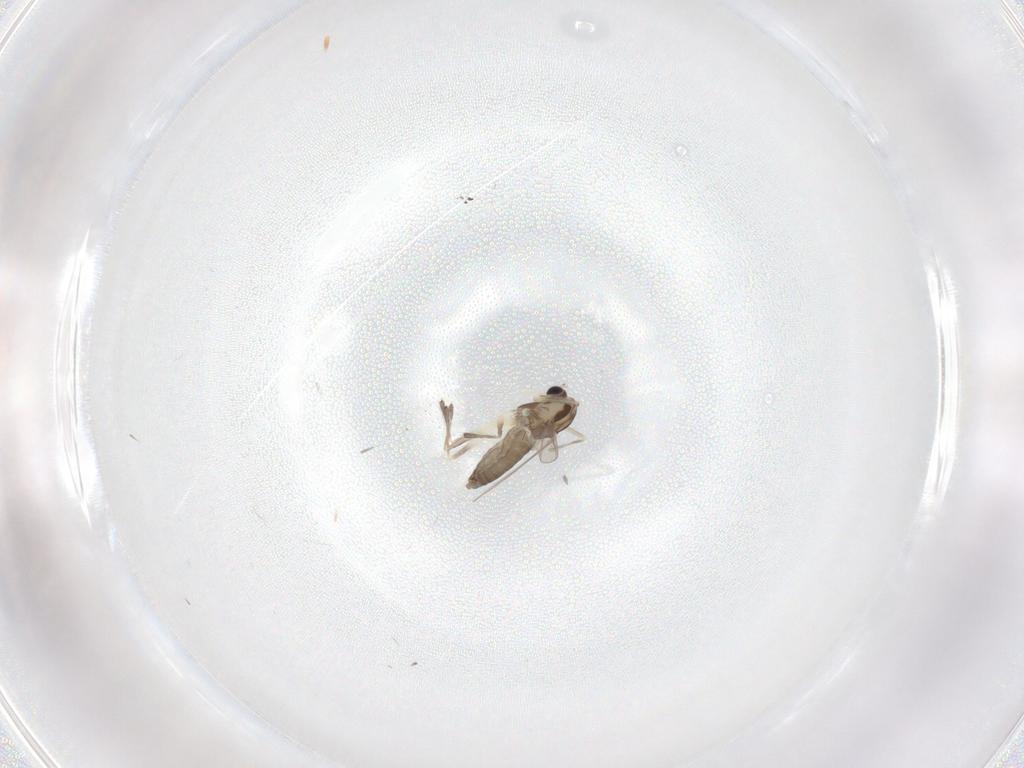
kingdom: Animalia
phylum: Arthropoda
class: Insecta
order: Diptera
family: Chironomidae
